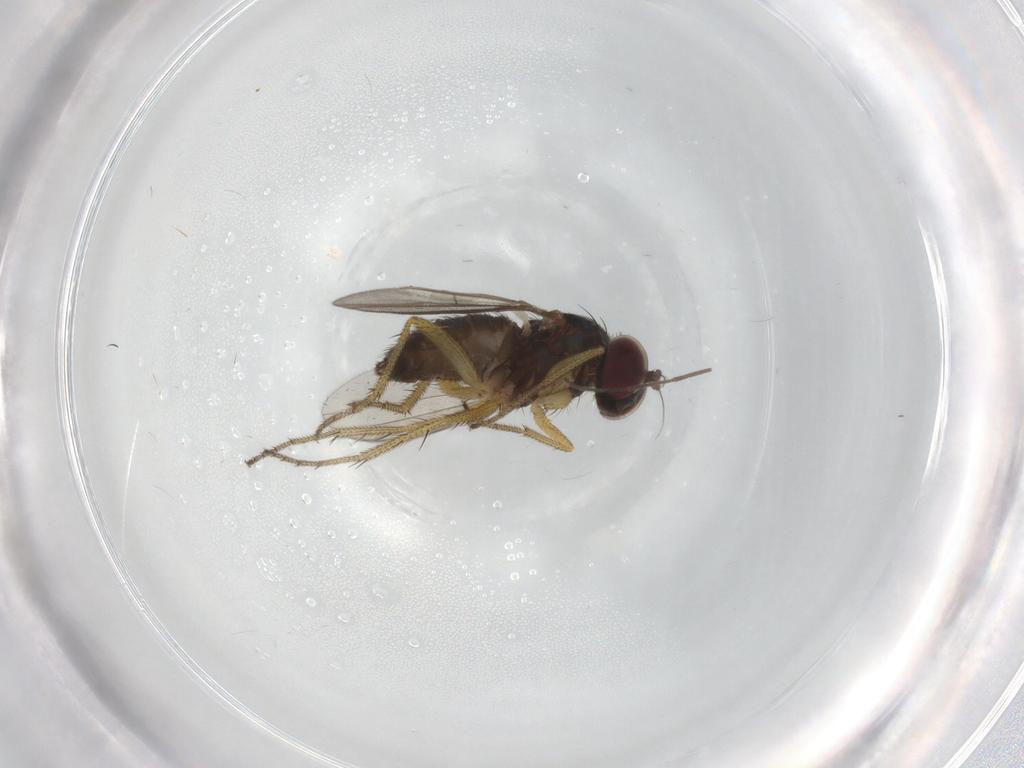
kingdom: Animalia
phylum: Arthropoda
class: Insecta
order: Diptera
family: Chironomidae
